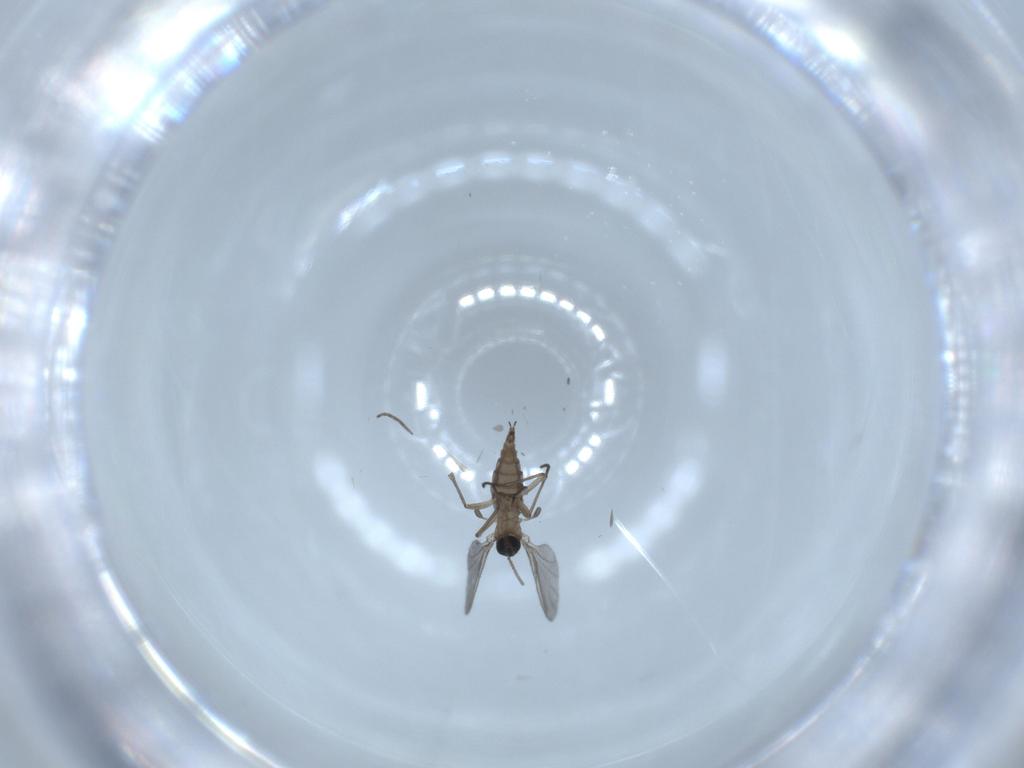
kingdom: Animalia
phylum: Arthropoda
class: Insecta
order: Diptera
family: Sciaridae
